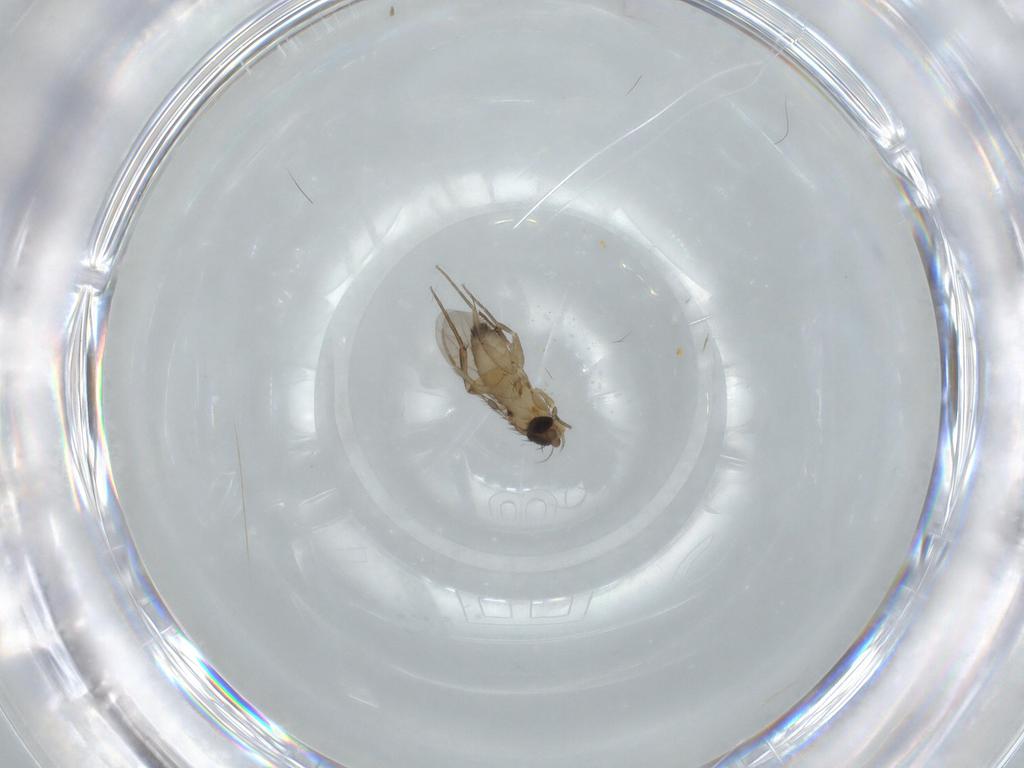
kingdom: Animalia
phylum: Arthropoda
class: Insecta
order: Diptera
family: Phoridae
